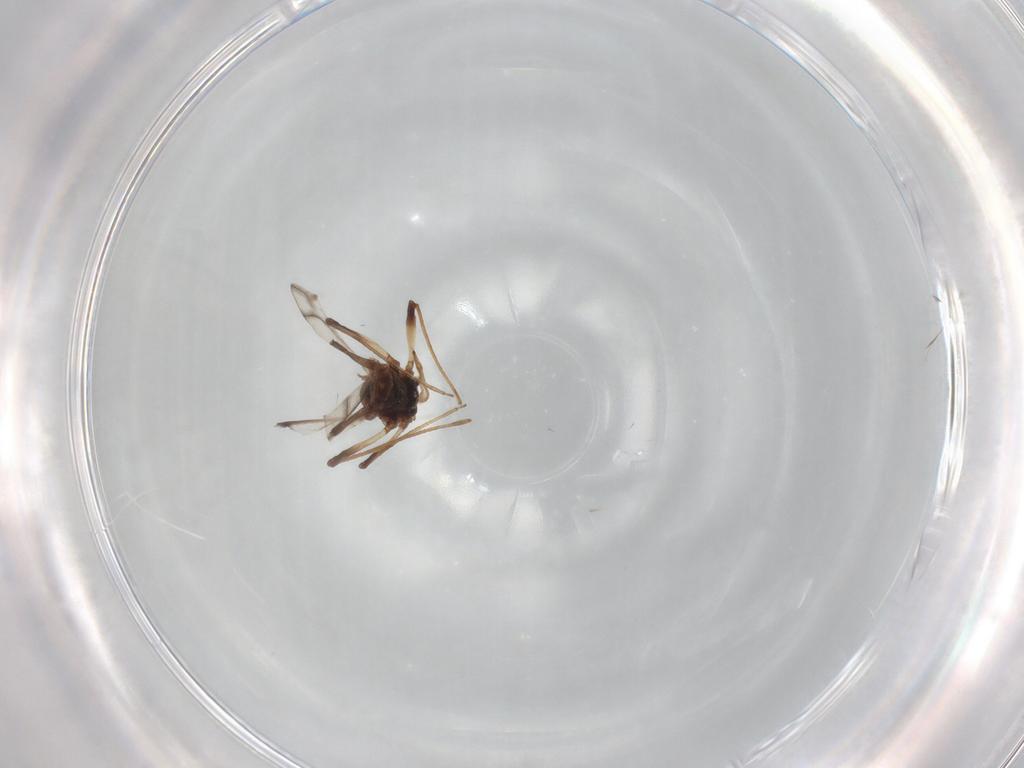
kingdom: Animalia
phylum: Arthropoda
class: Insecta
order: Hemiptera
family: Aphididae
